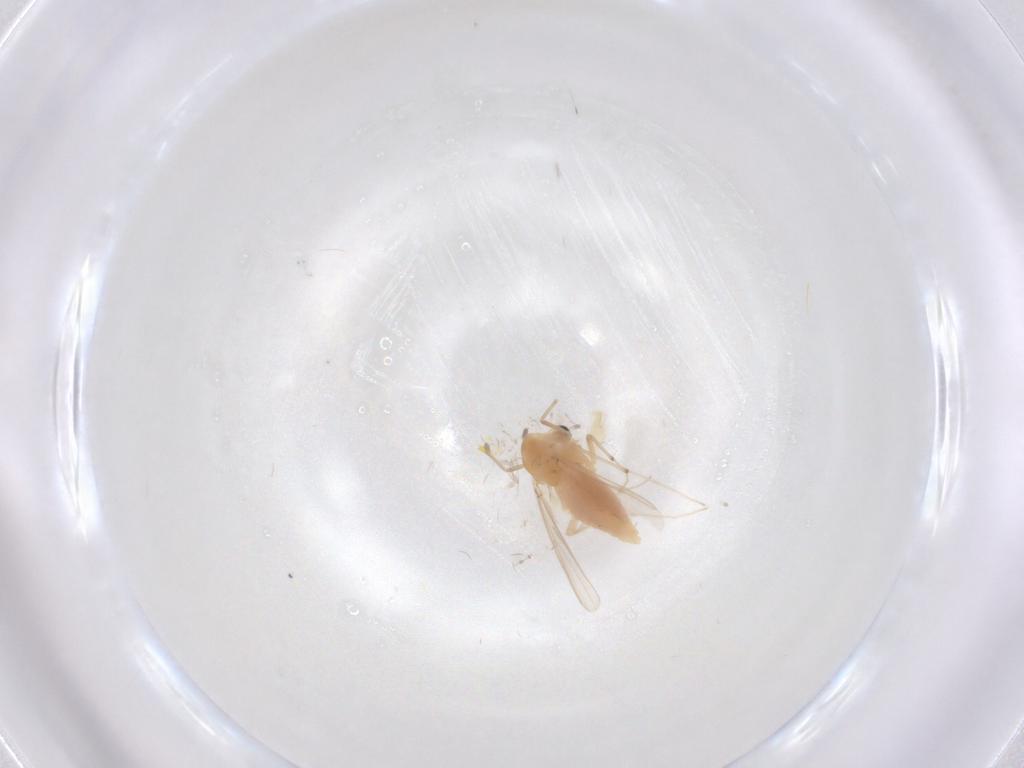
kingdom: Animalia
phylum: Arthropoda
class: Insecta
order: Diptera
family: Chironomidae
